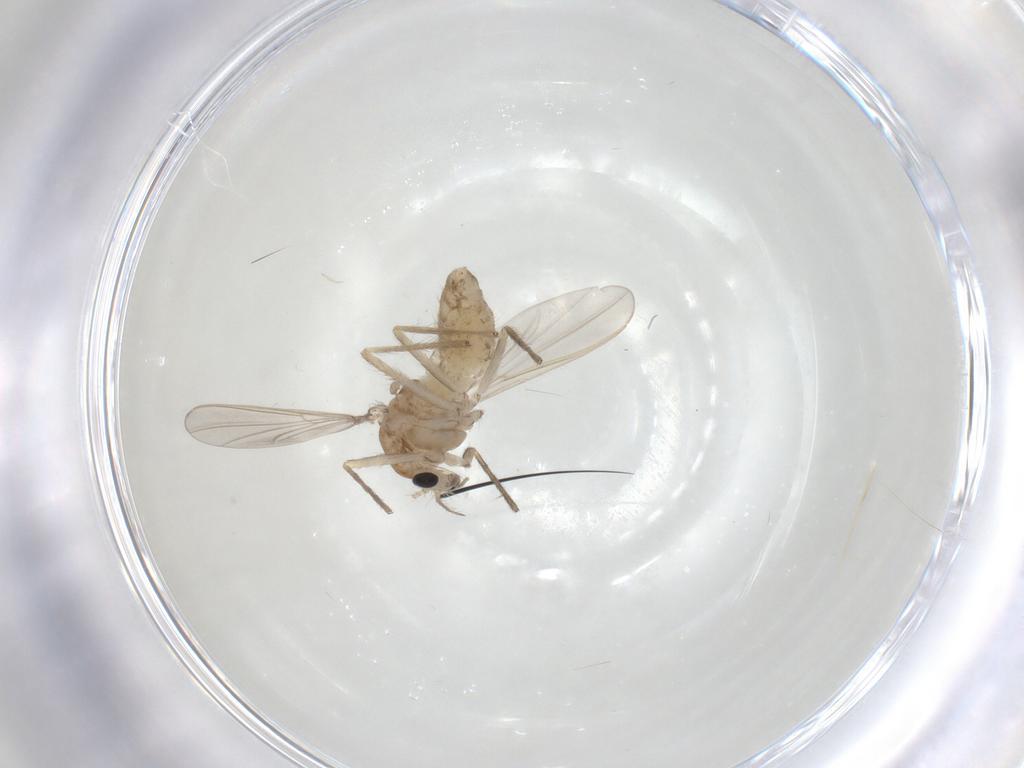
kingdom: Animalia
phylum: Arthropoda
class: Insecta
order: Diptera
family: Chironomidae
